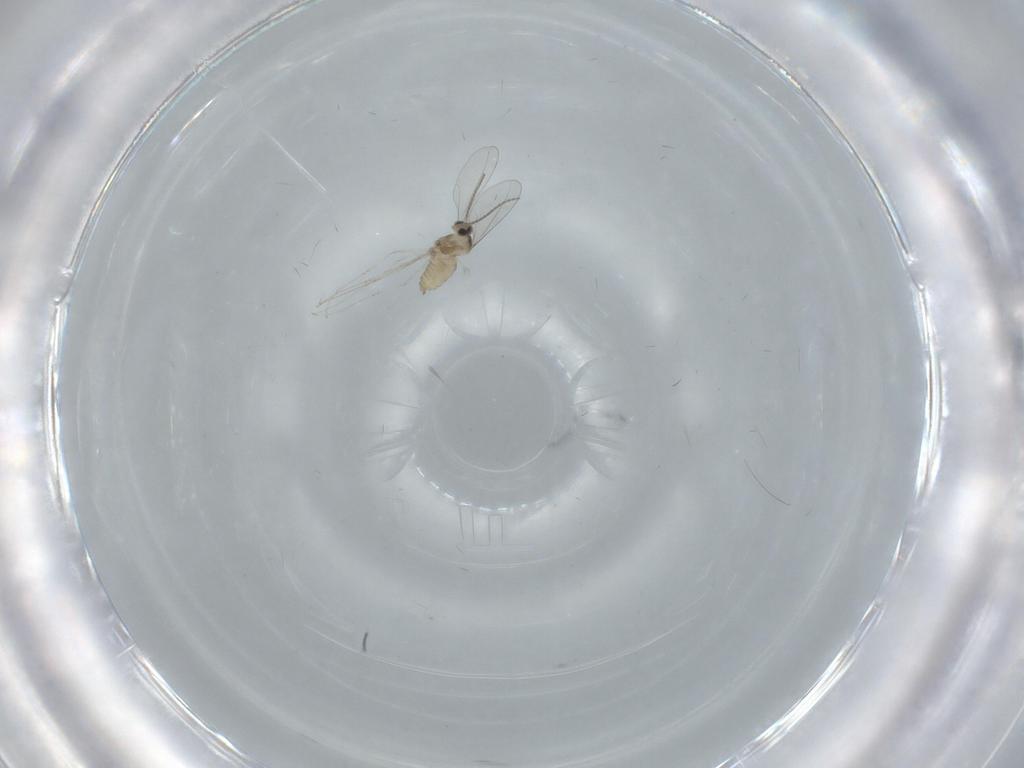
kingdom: Animalia
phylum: Arthropoda
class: Insecta
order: Diptera
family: Cecidomyiidae
